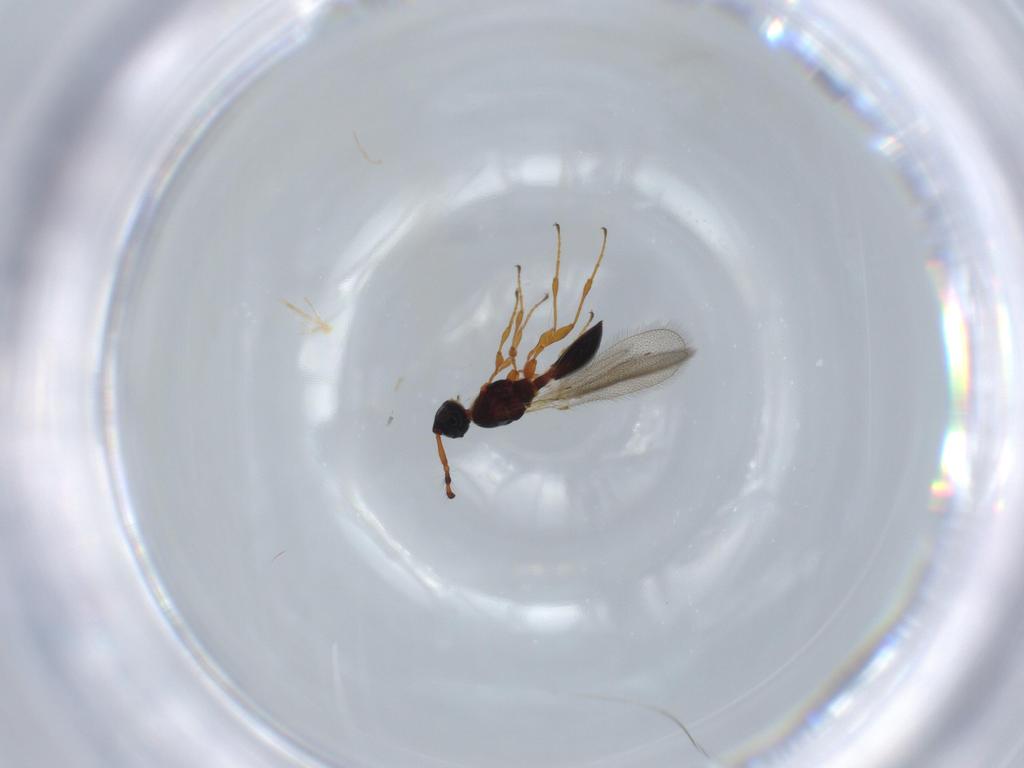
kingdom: Animalia
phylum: Arthropoda
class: Insecta
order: Hymenoptera
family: Diapriidae
